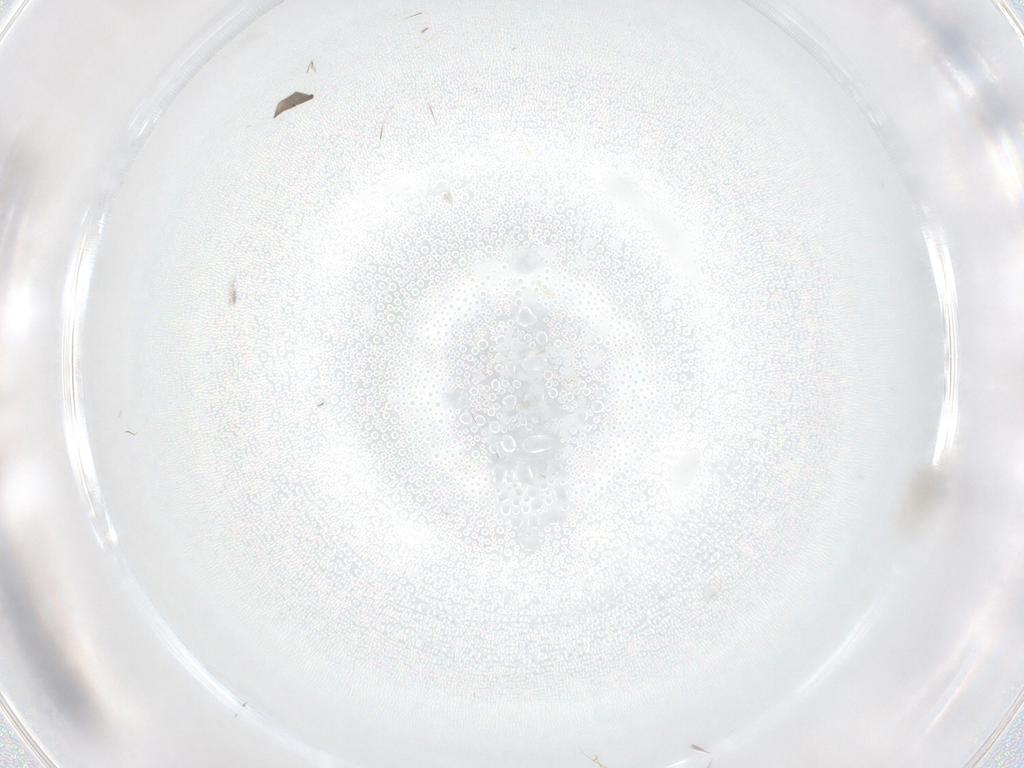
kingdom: Animalia
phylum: Arthropoda
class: Insecta
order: Diptera
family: Limoniidae
